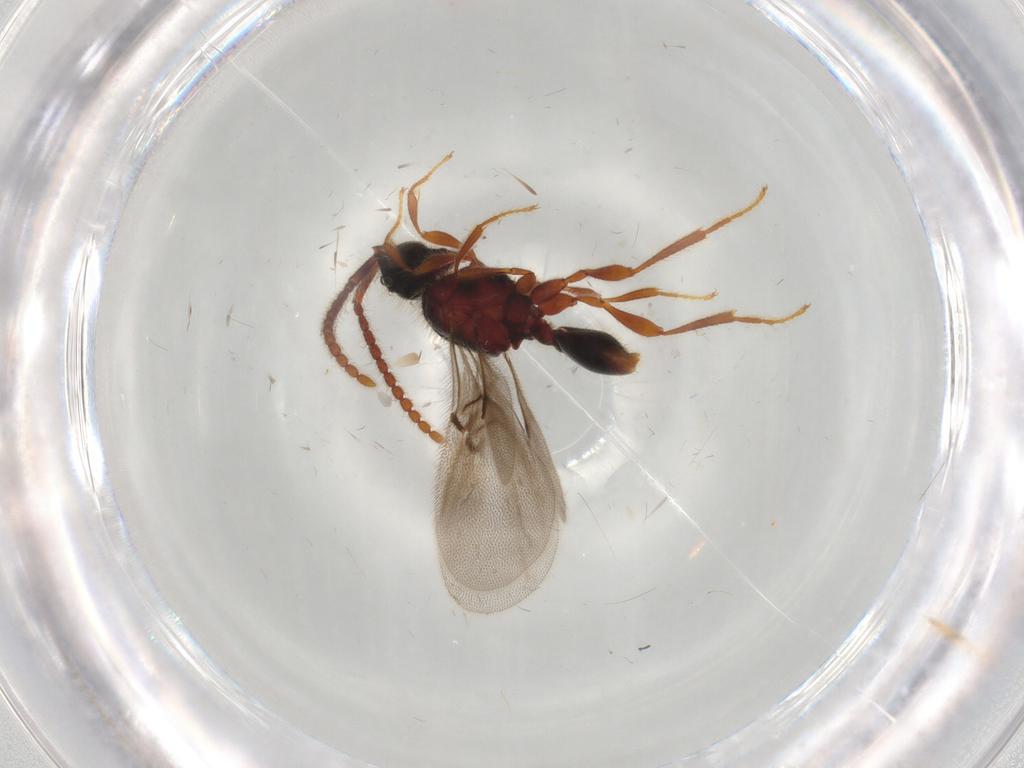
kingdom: Animalia
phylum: Arthropoda
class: Insecta
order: Hymenoptera
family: Diapriidae
